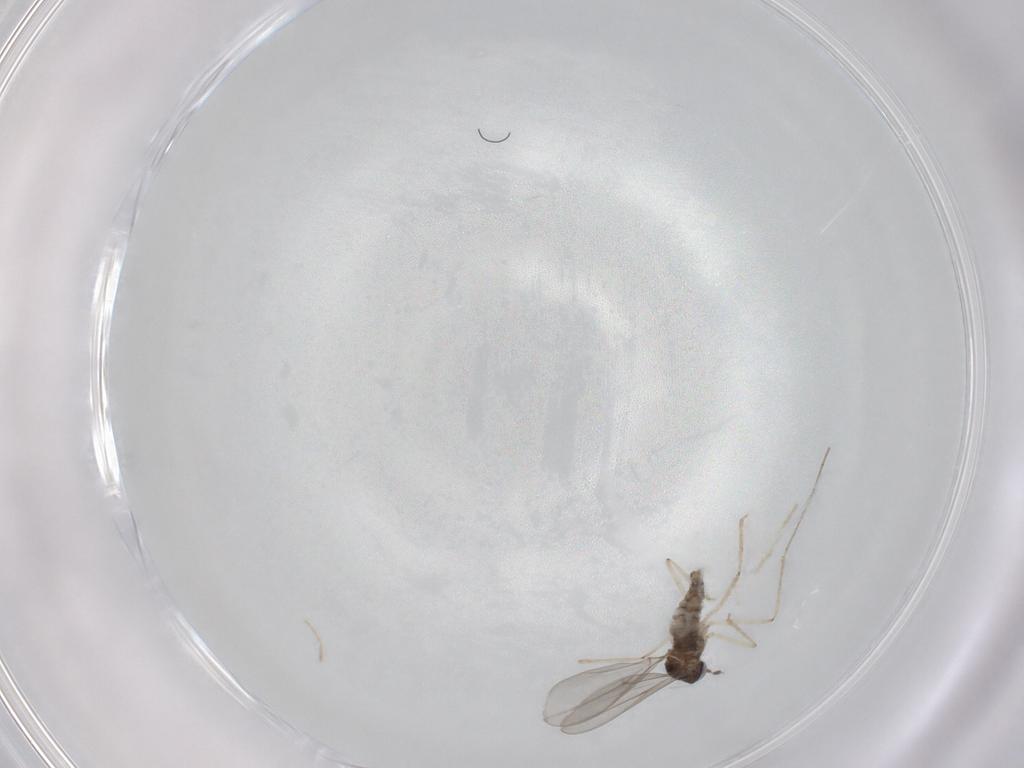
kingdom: Animalia
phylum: Arthropoda
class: Insecta
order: Diptera
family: Cecidomyiidae
